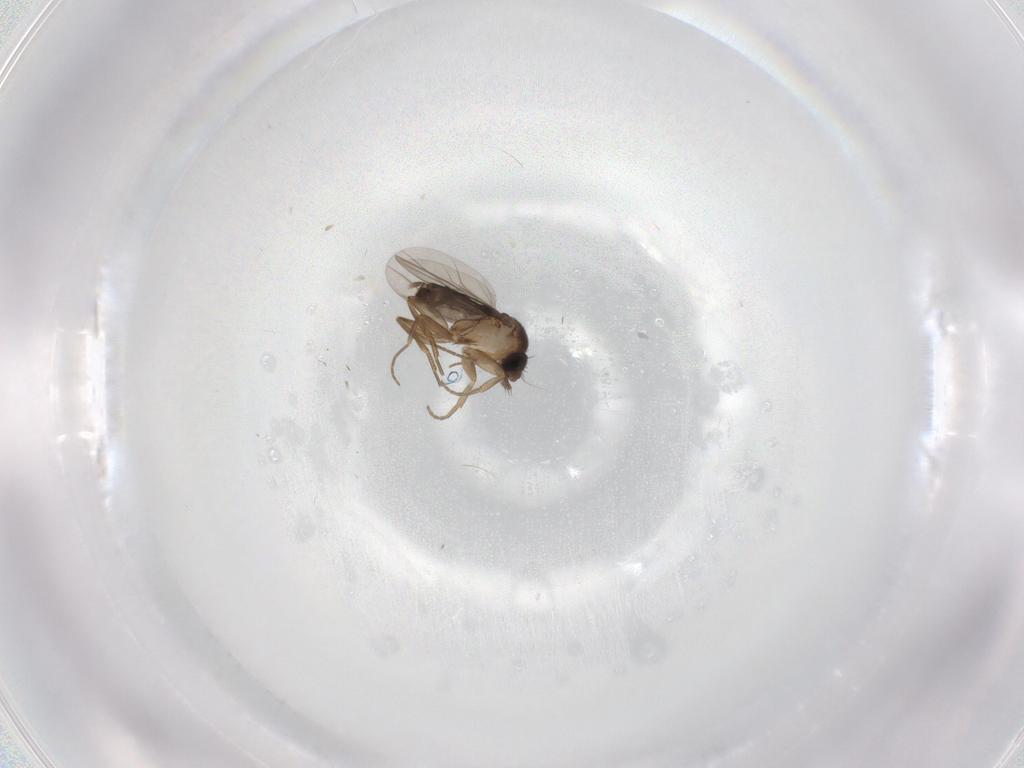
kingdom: Animalia
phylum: Arthropoda
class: Insecta
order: Diptera
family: Phoridae
